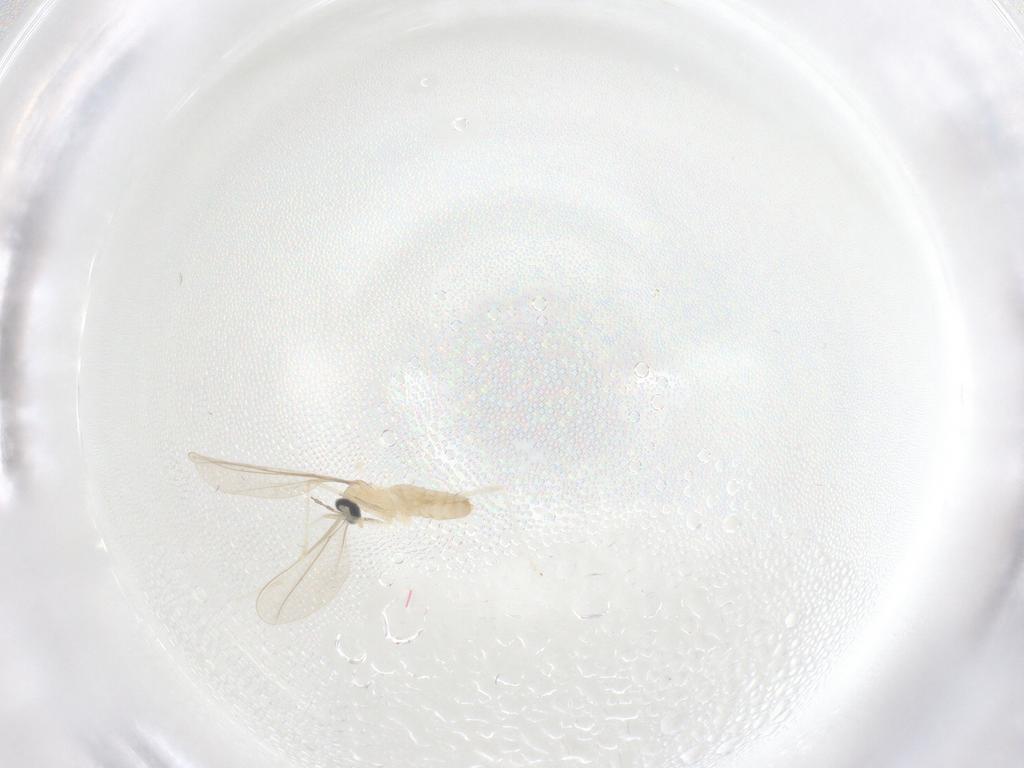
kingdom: Animalia
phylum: Arthropoda
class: Insecta
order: Diptera
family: Cecidomyiidae
